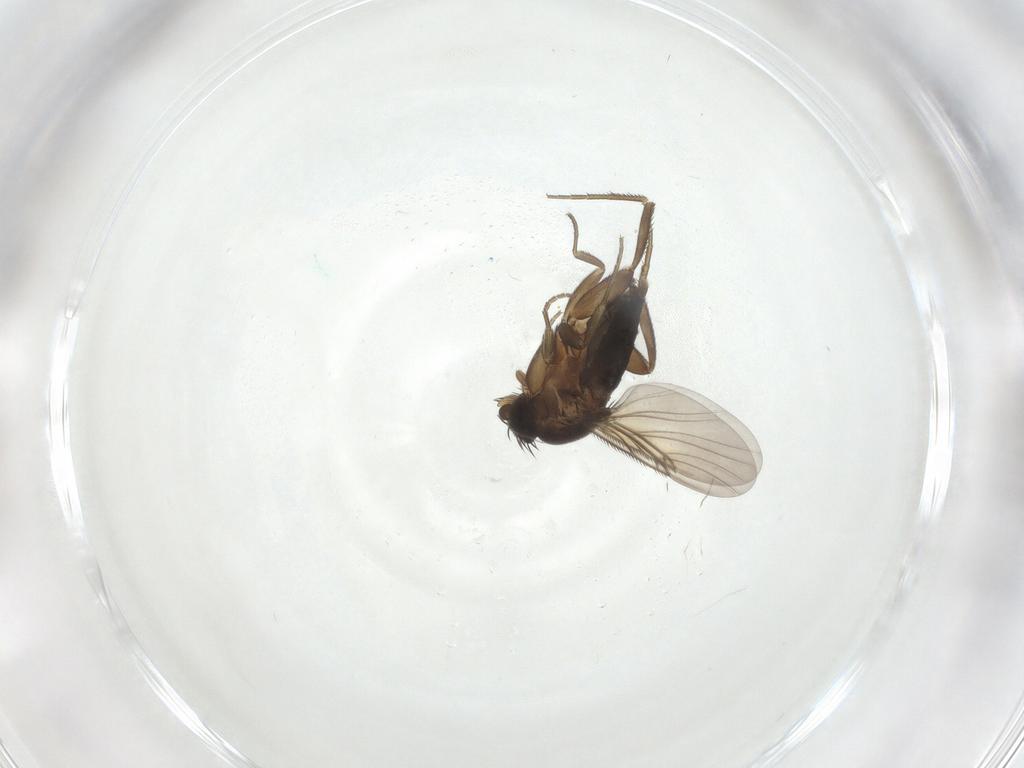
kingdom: Animalia
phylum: Arthropoda
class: Insecta
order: Diptera
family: Phoridae
